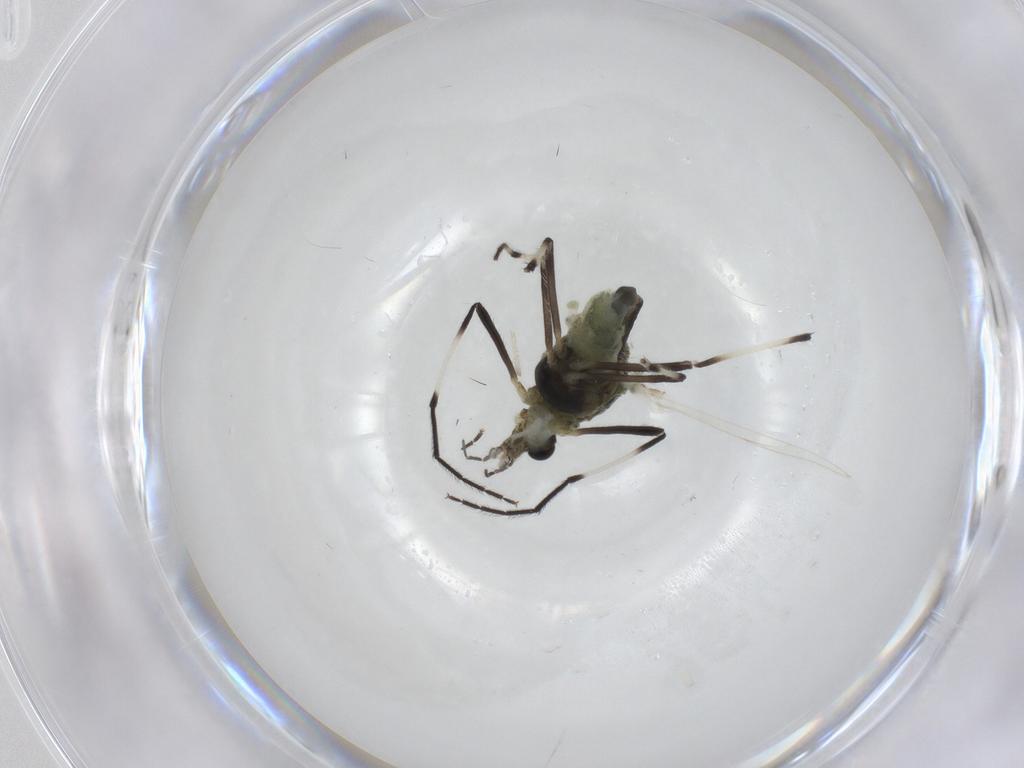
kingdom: Animalia
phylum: Arthropoda
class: Insecta
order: Diptera
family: Chironomidae
